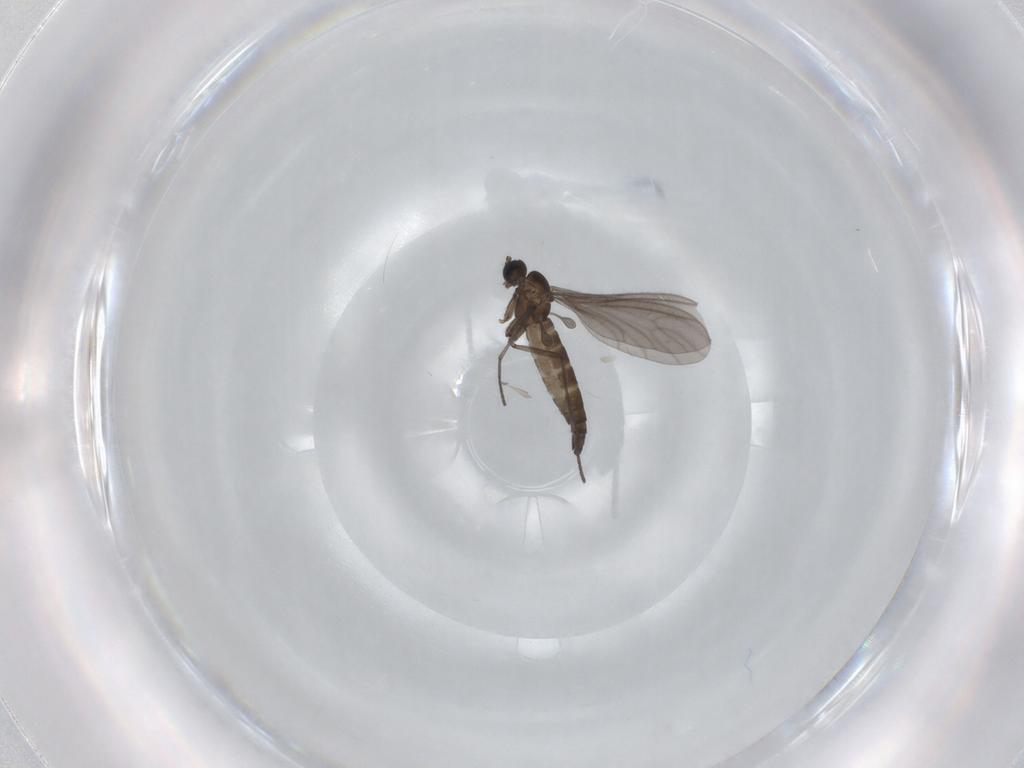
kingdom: Animalia
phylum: Arthropoda
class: Insecta
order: Diptera
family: Sciaridae
